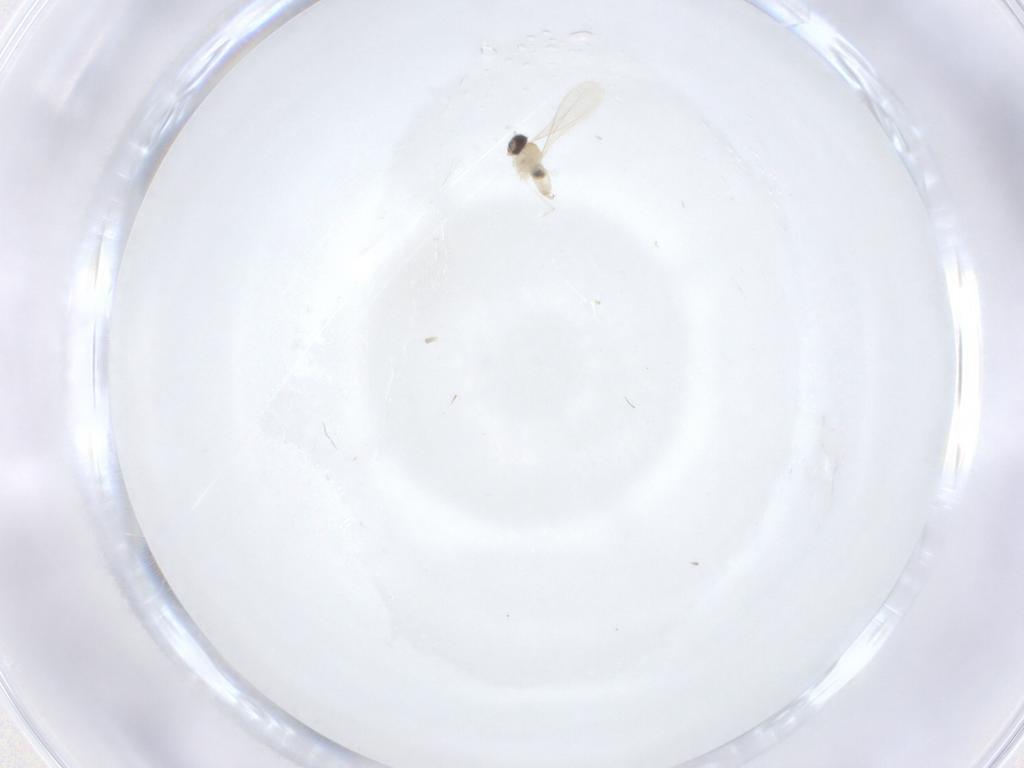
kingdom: Animalia
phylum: Arthropoda
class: Insecta
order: Diptera
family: Cecidomyiidae
